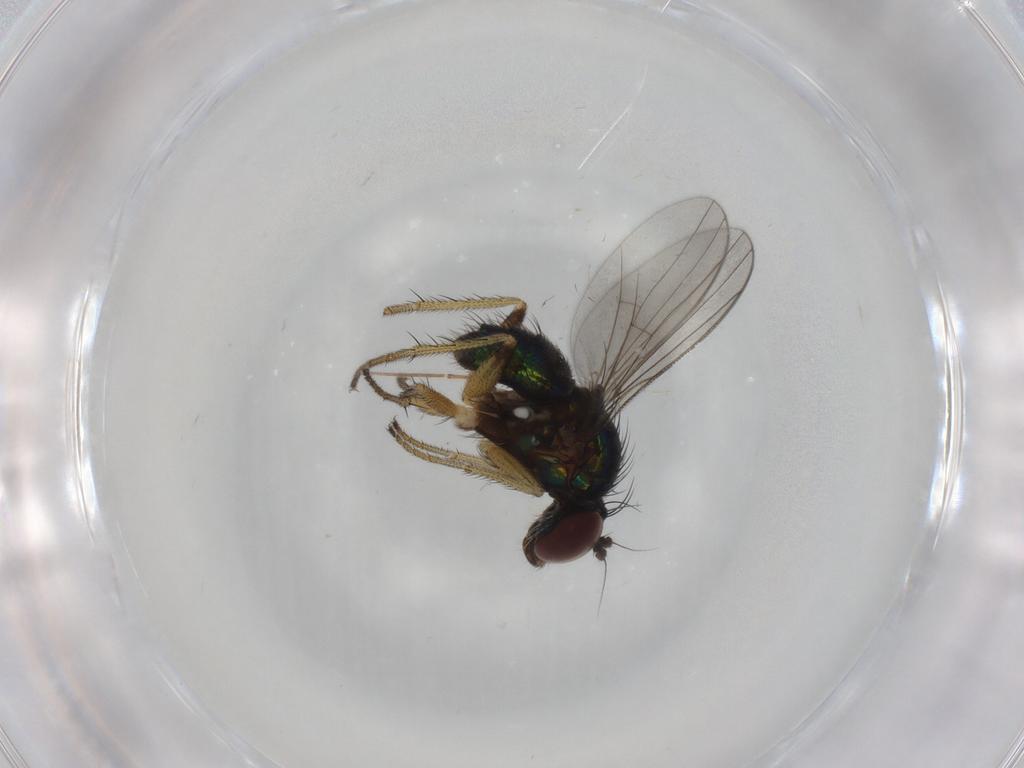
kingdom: Animalia
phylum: Arthropoda
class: Insecta
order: Diptera
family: Dolichopodidae
